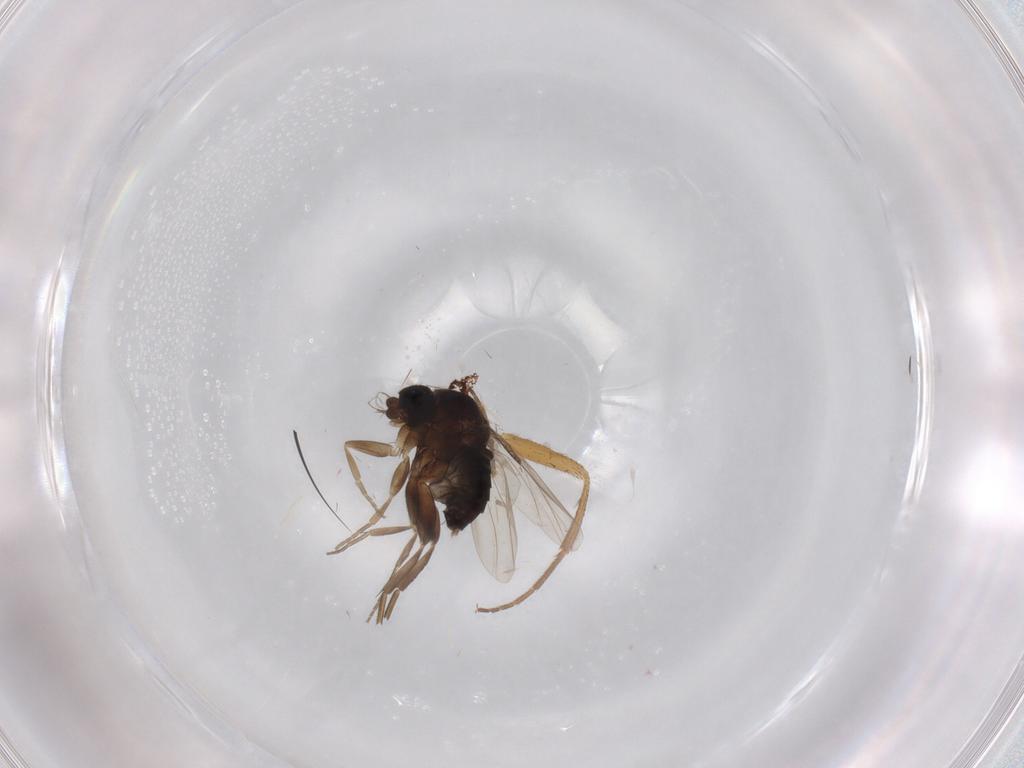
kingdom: Animalia
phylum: Arthropoda
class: Insecta
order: Diptera
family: Phoridae
